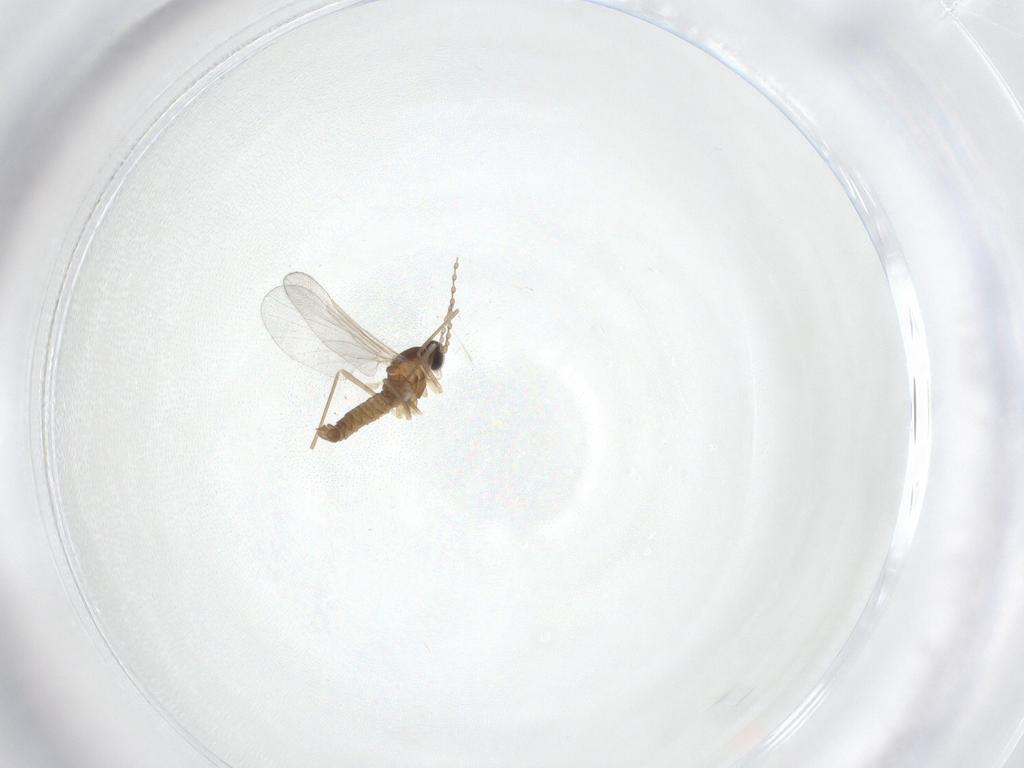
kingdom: Animalia
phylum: Arthropoda
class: Insecta
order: Diptera
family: Cecidomyiidae
